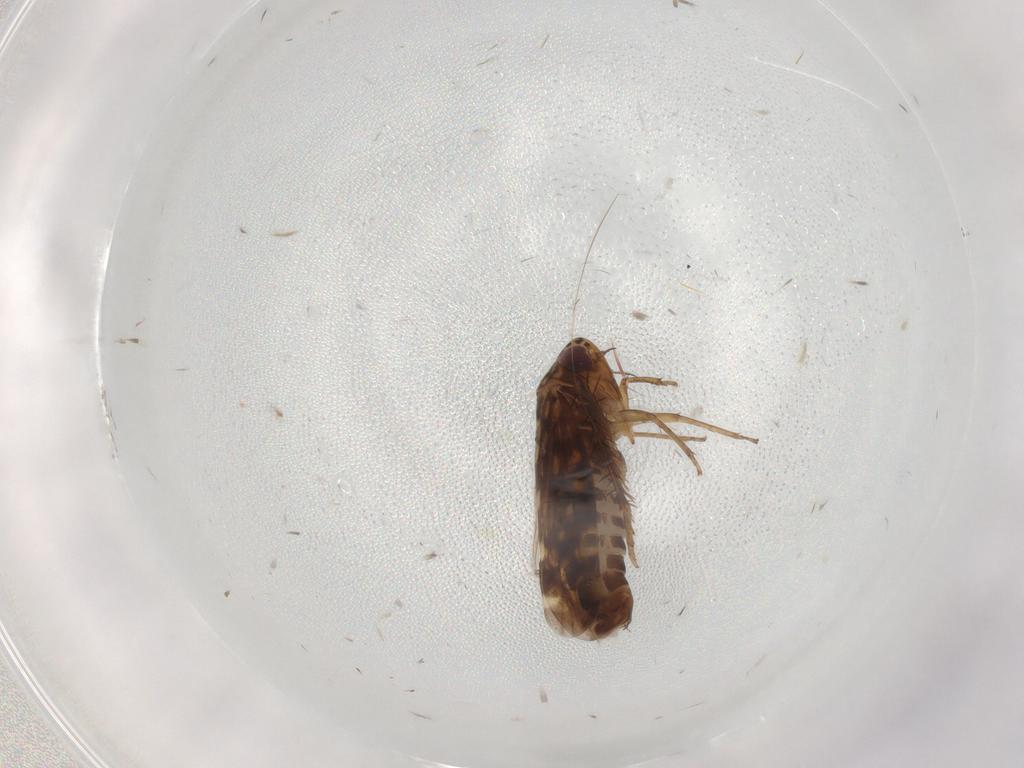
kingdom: Animalia
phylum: Arthropoda
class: Insecta
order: Hemiptera
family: Cicadellidae
